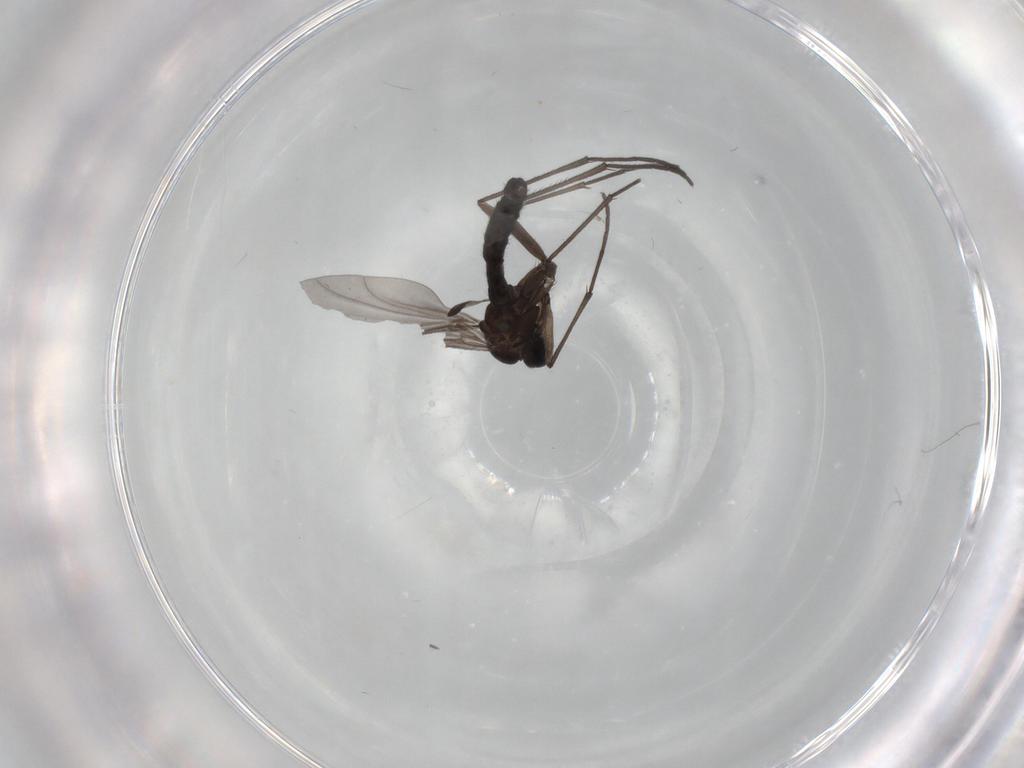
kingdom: Animalia
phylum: Arthropoda
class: Insecta
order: Diptera
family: Sciaridae
